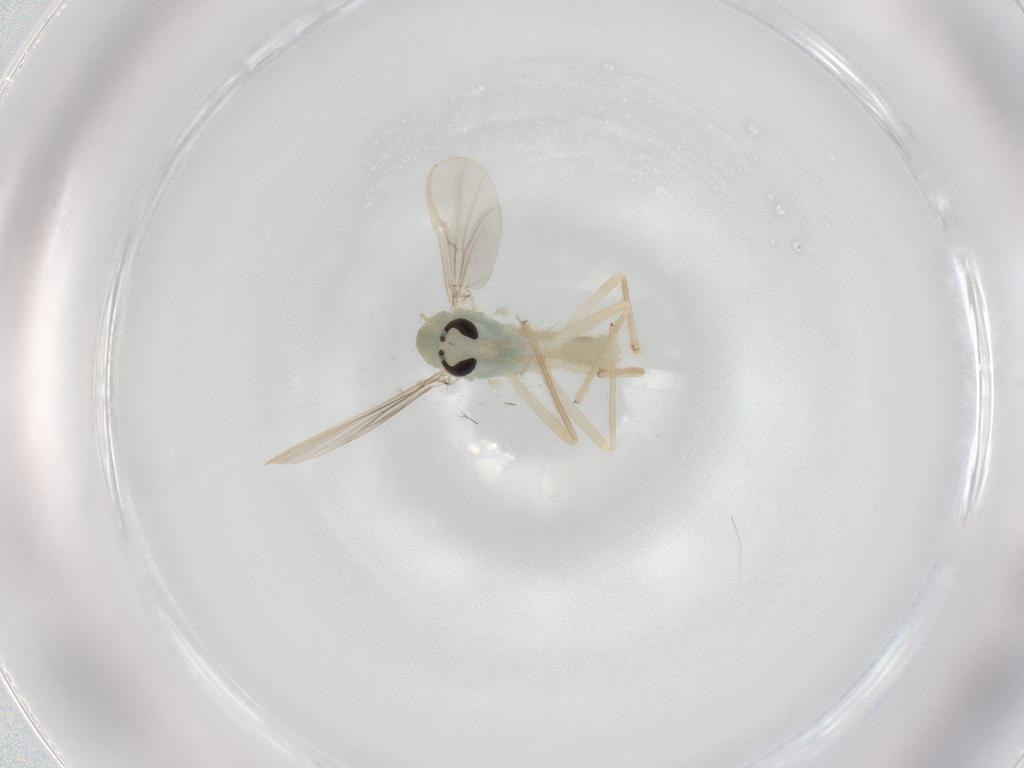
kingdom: Animalia
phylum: Arthropoda
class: Insecta
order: Diptera
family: Chironomidae
